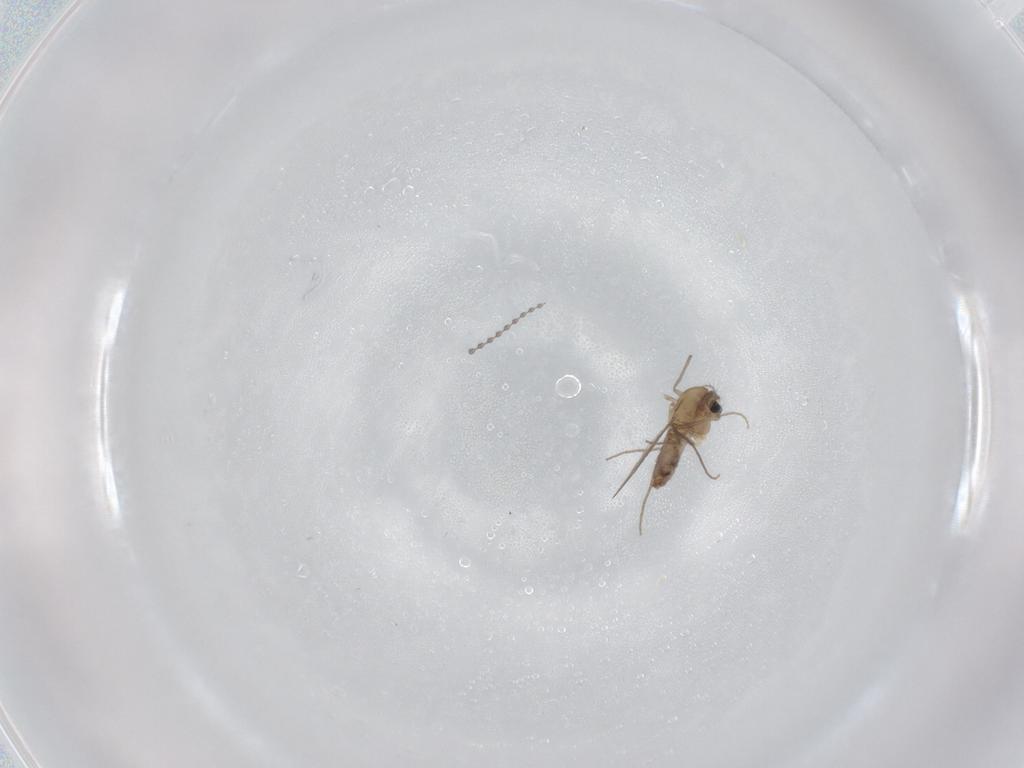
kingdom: Animalia
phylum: Arthropoda
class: Insecta
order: Diptera
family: Chironomidae
